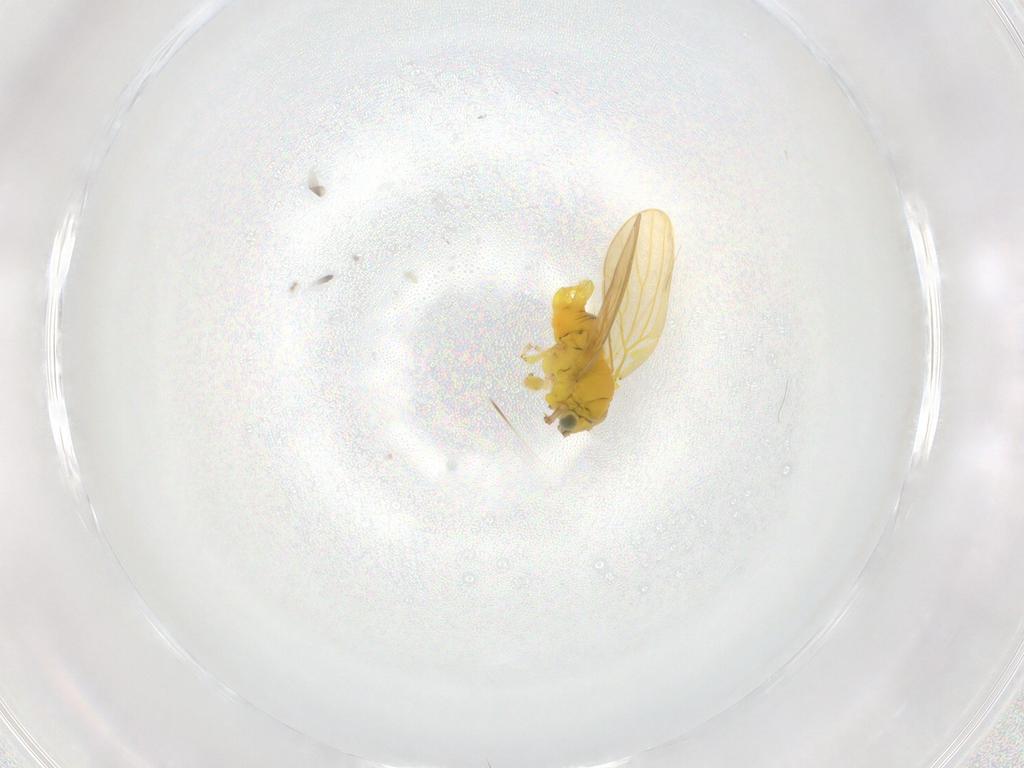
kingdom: Animalia
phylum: Arthropoda
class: Insecta
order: Hemiptera
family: Aphalaridae
